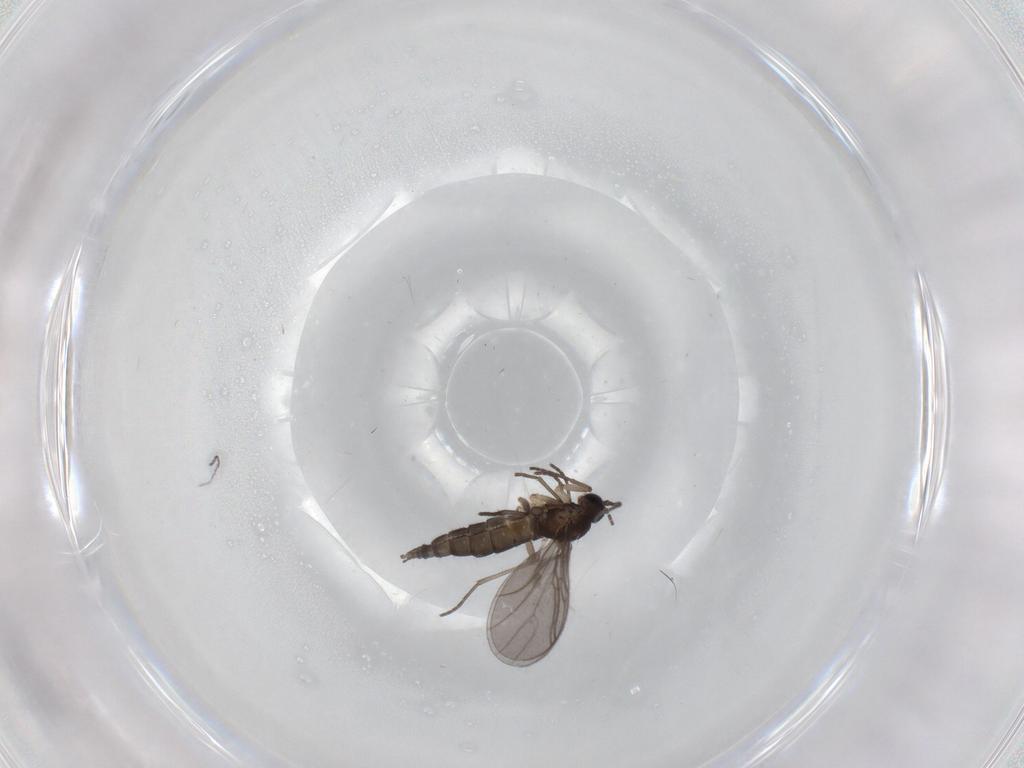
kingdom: Animalia
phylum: Arthropoda
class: Insecta
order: Diptera
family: Sciaridae
